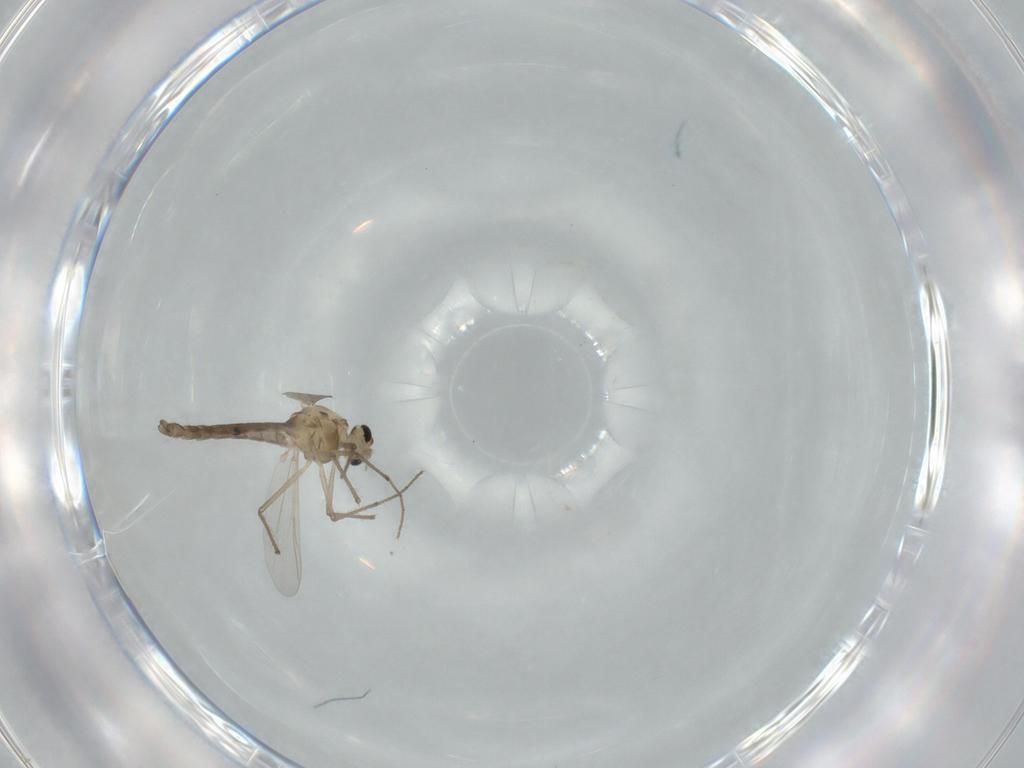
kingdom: Animalia
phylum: Arthropoda
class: Insecta
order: Diptera
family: Chironomidae
